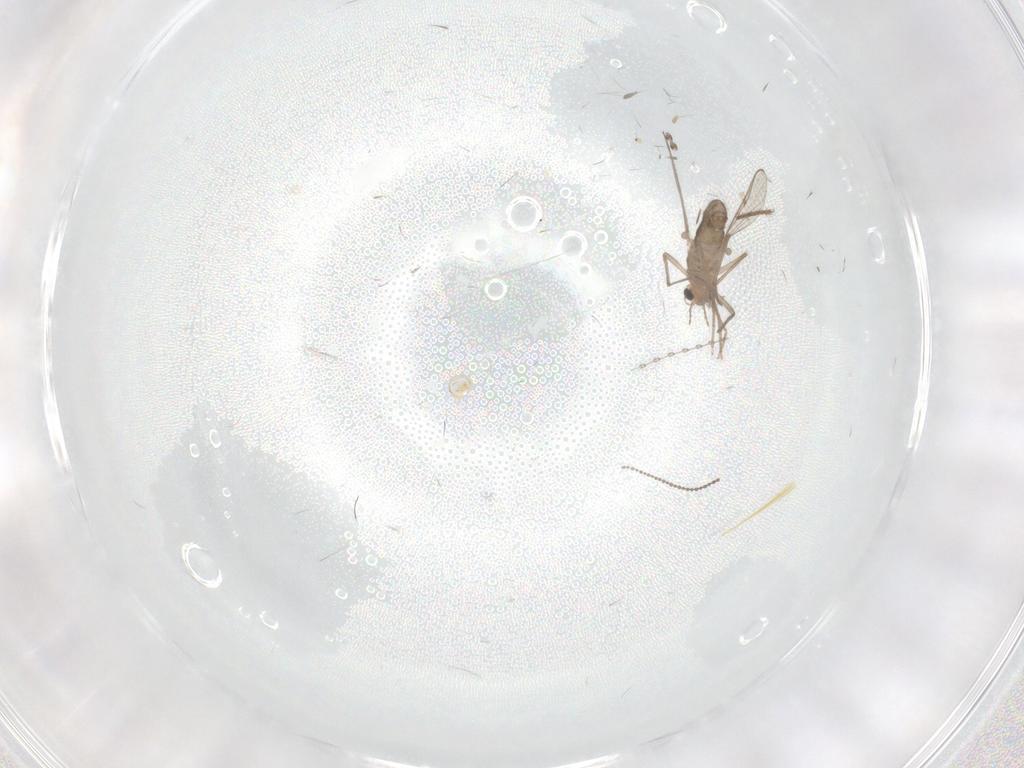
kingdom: Animalia
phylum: Arthropoda
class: Insecta
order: Diptera
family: Chironomidae
